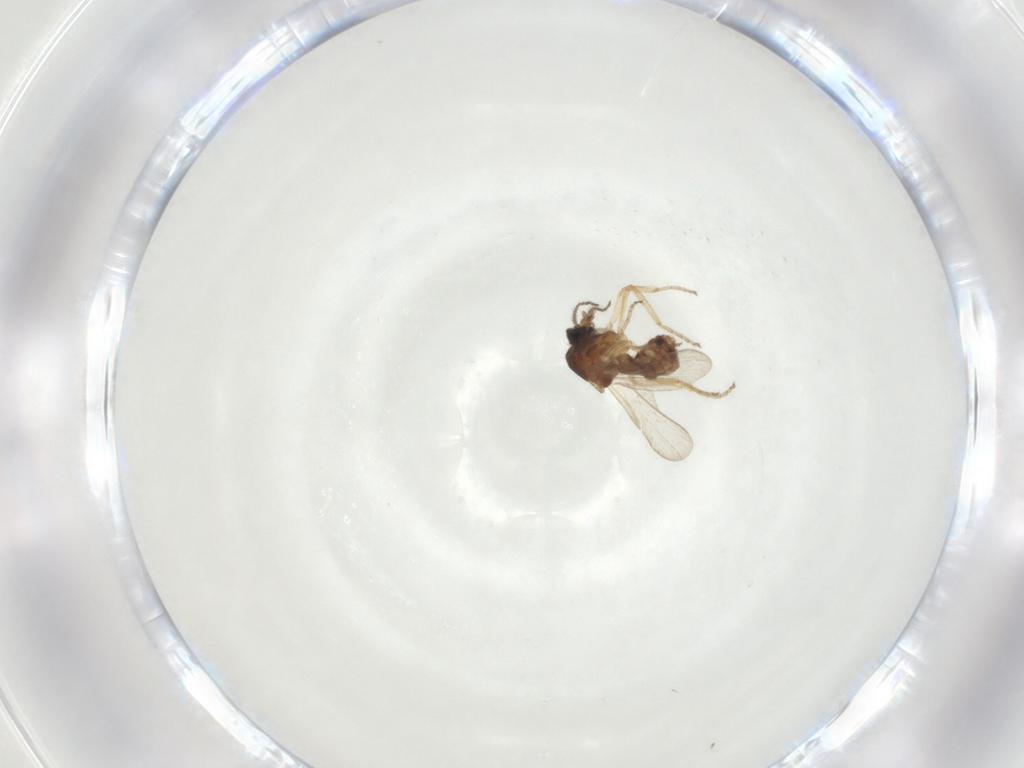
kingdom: Animalia
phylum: Arthropoda
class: Insecta
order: Diptera
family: Ceratopogonidae
